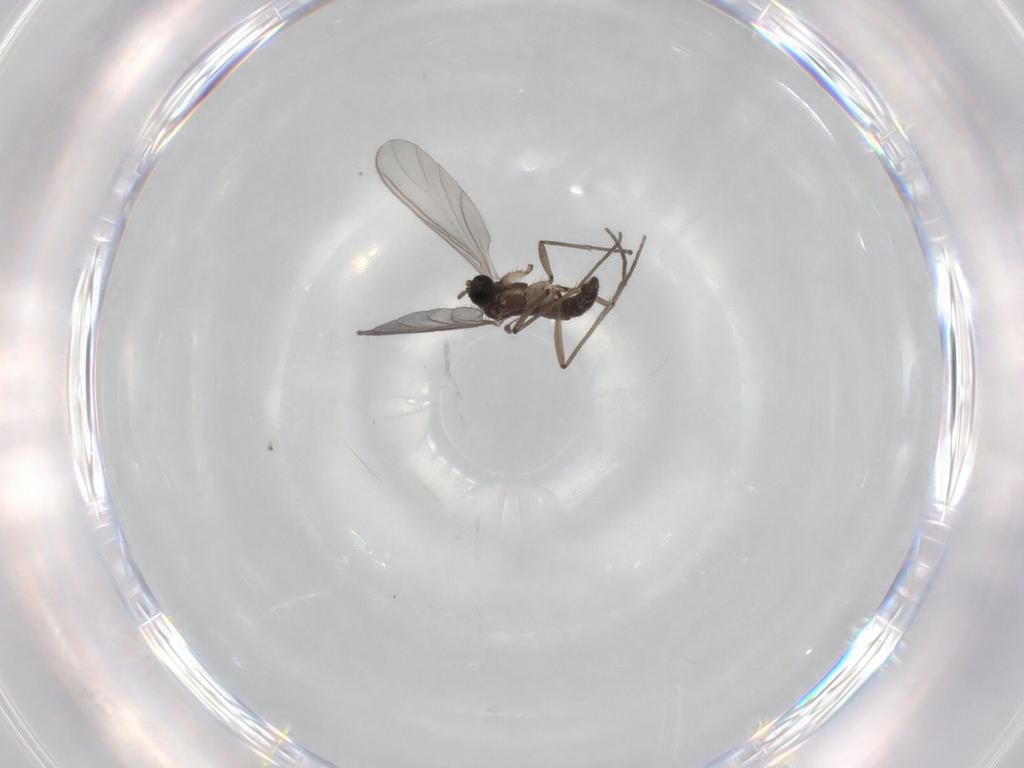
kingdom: Animalia
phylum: Arthropoda
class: Insecta
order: Diptera
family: Sciaridae
